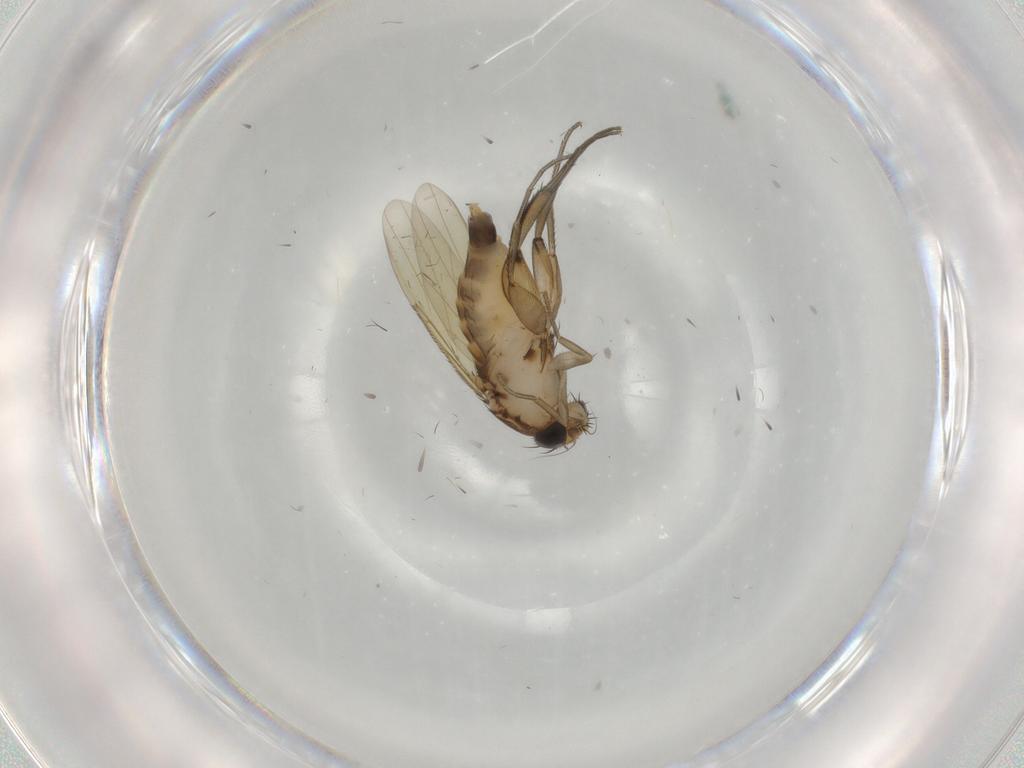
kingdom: Animalia
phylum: Arthropoda
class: Insecta
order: Diptera
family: Phoridae
